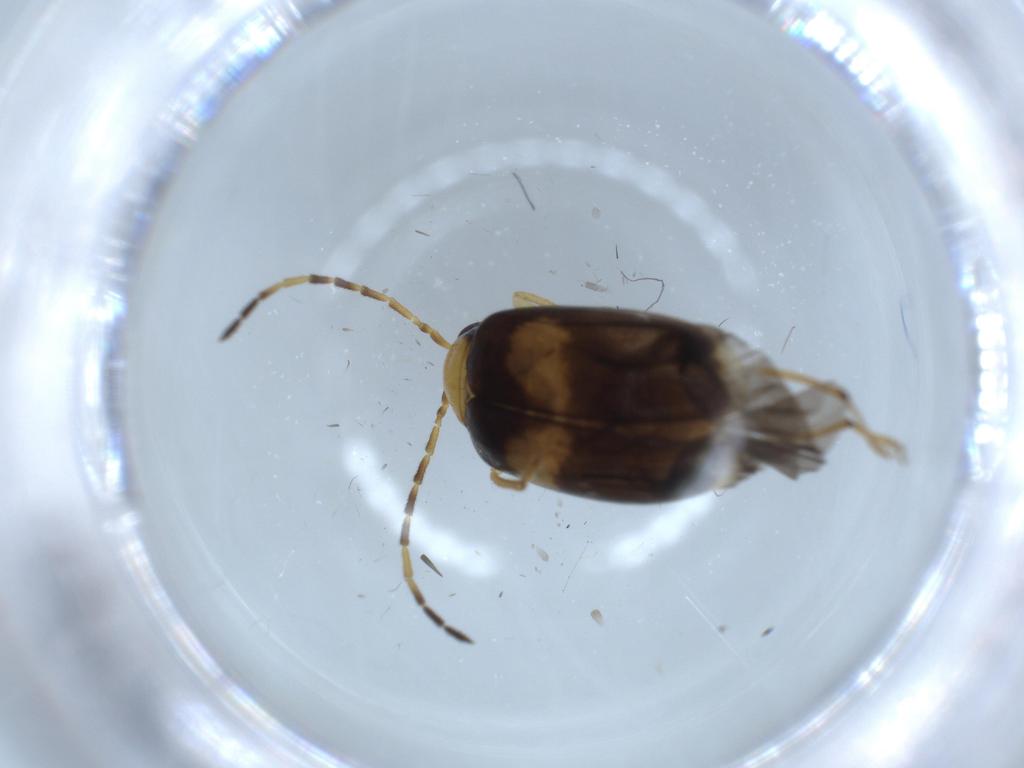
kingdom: Animalia
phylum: Arthropoda
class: Insecta
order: Coleoptera
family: Chrysomelidae
